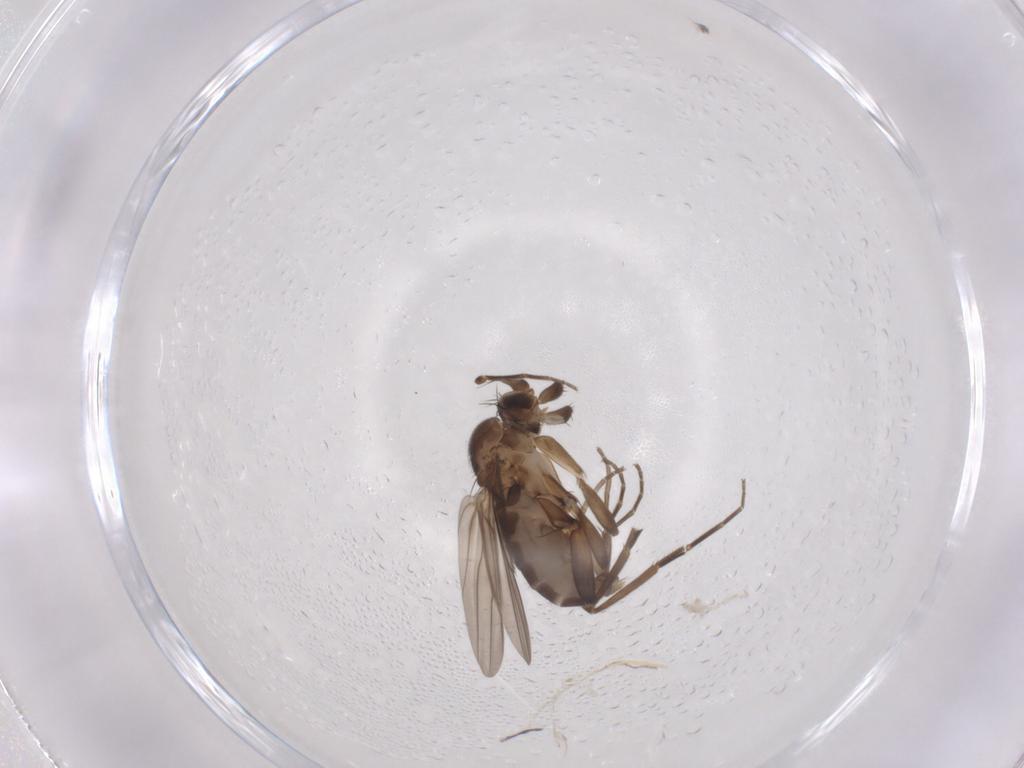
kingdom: Animalia
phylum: Arthropoda
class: Insecta
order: Diptera
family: Phoridae
